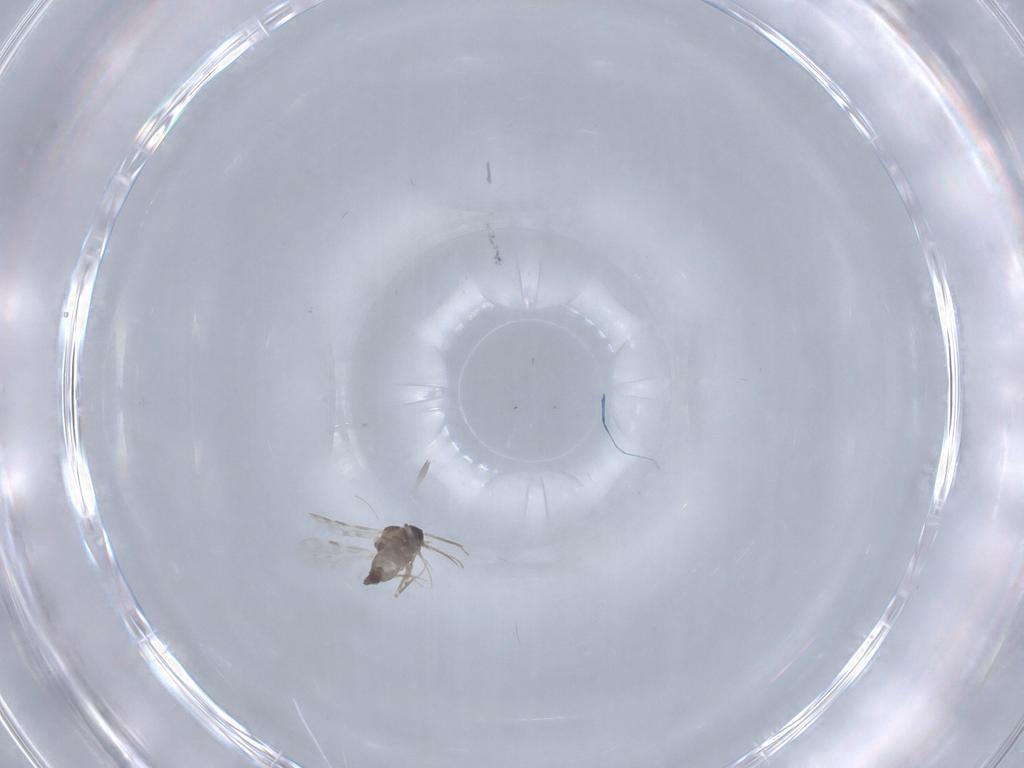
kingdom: Animalia
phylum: Arthropoda
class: Insecta
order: Diptera
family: Ceratopogonidae
